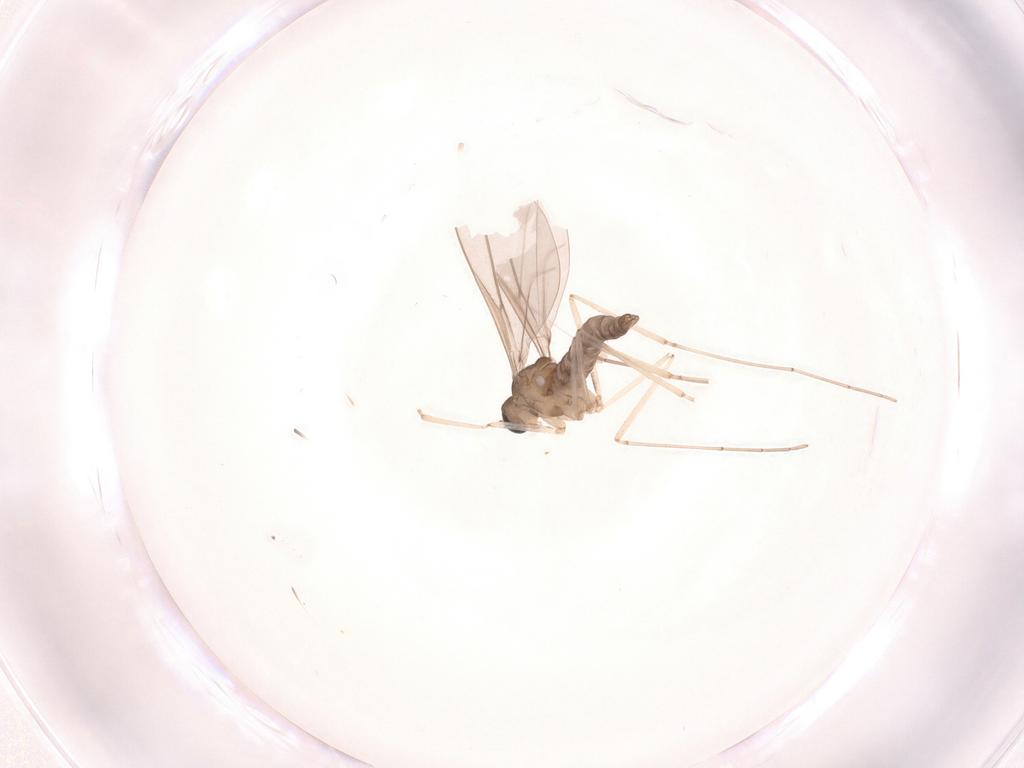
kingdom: Animalia
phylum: Arthropoda
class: Insecta
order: Diptera
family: Cecidomyiidae
